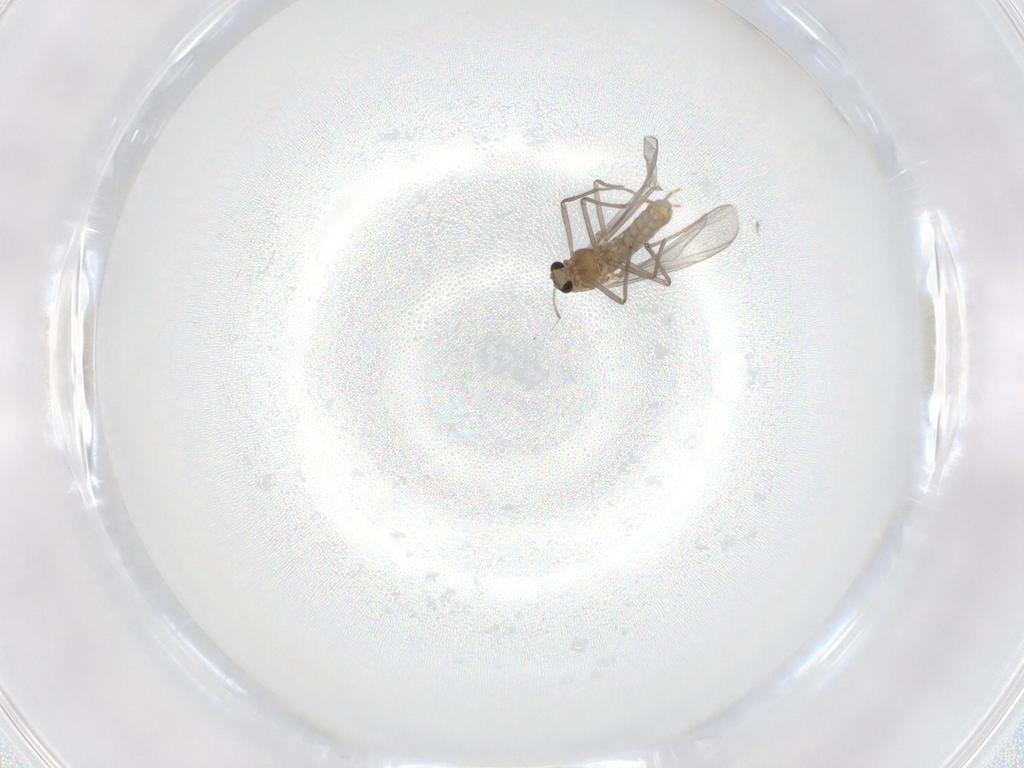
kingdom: Animalia
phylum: Arthropoda
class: Insecta
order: Diptera
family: Chironomidae
